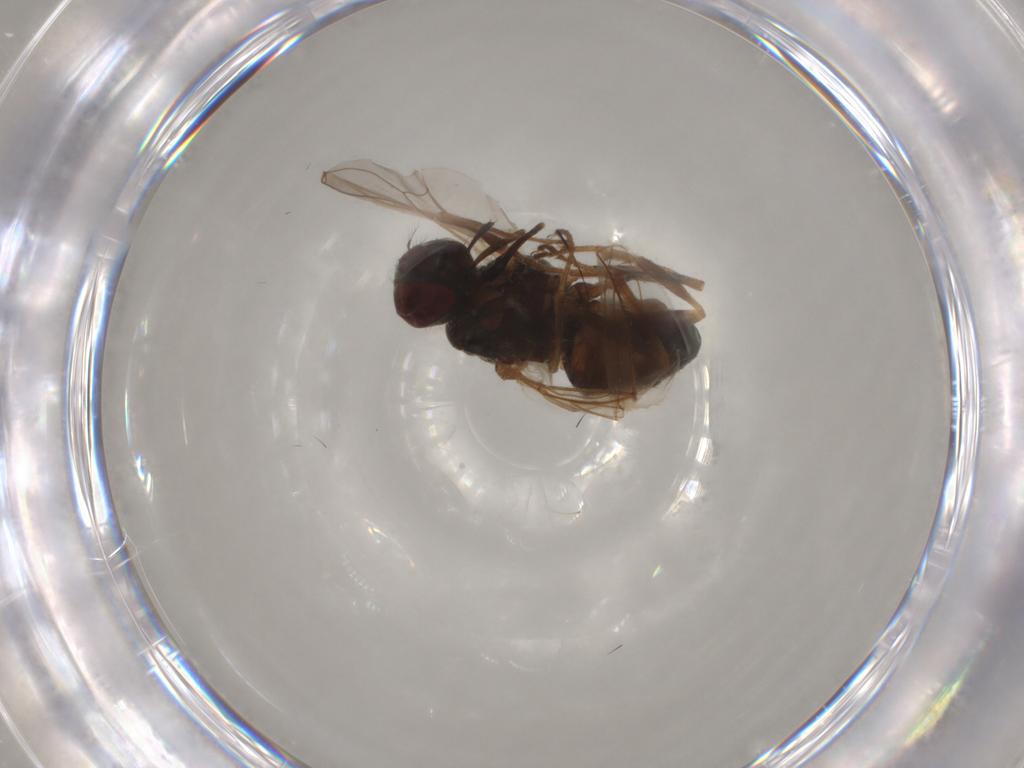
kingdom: Animalia
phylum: Arthropoda
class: Insecta
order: Diptera
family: Muscidae
